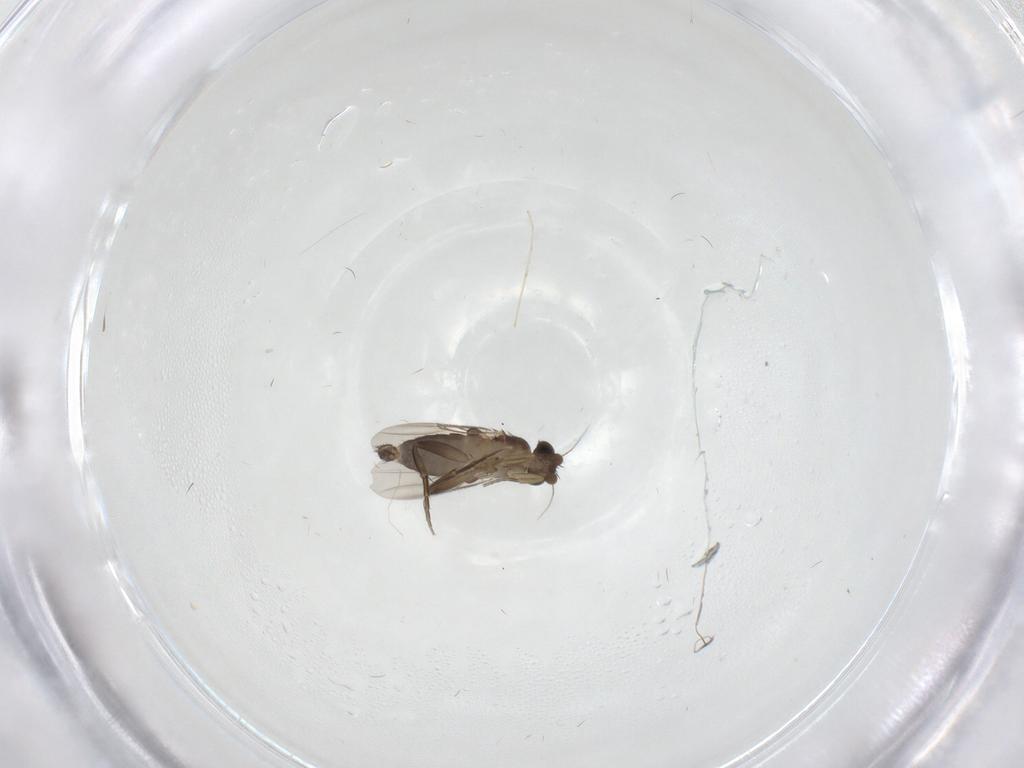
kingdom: Animalia
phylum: Arthropoda
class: Insecta
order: Diptera
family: Phoridae
